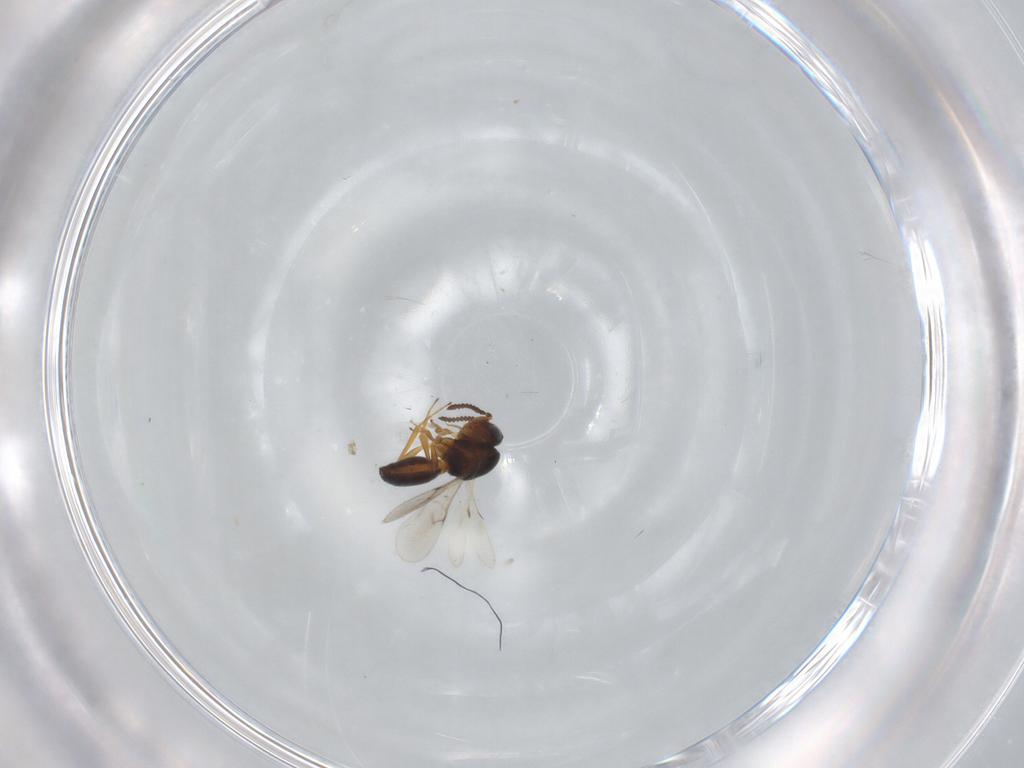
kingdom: Animalia
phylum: Arthropoda
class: Insecta
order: Hymenoptera
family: Scelionidae
